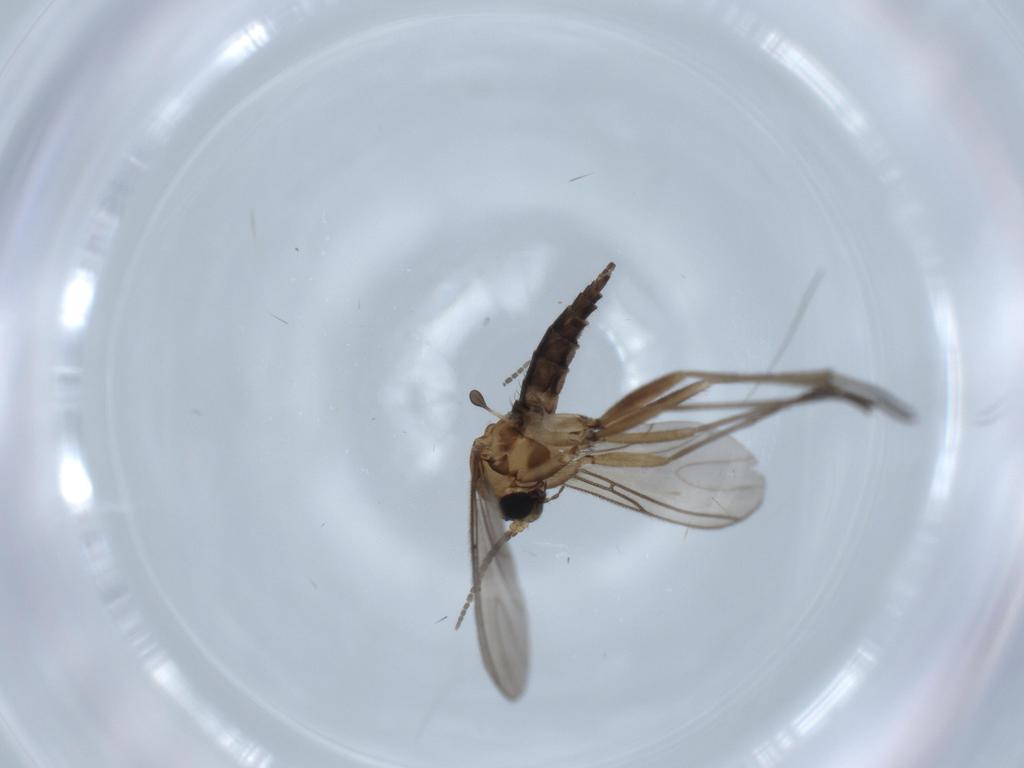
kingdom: Animalia
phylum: Arthropoda
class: Insecta
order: Diptera
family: Sciaridae
